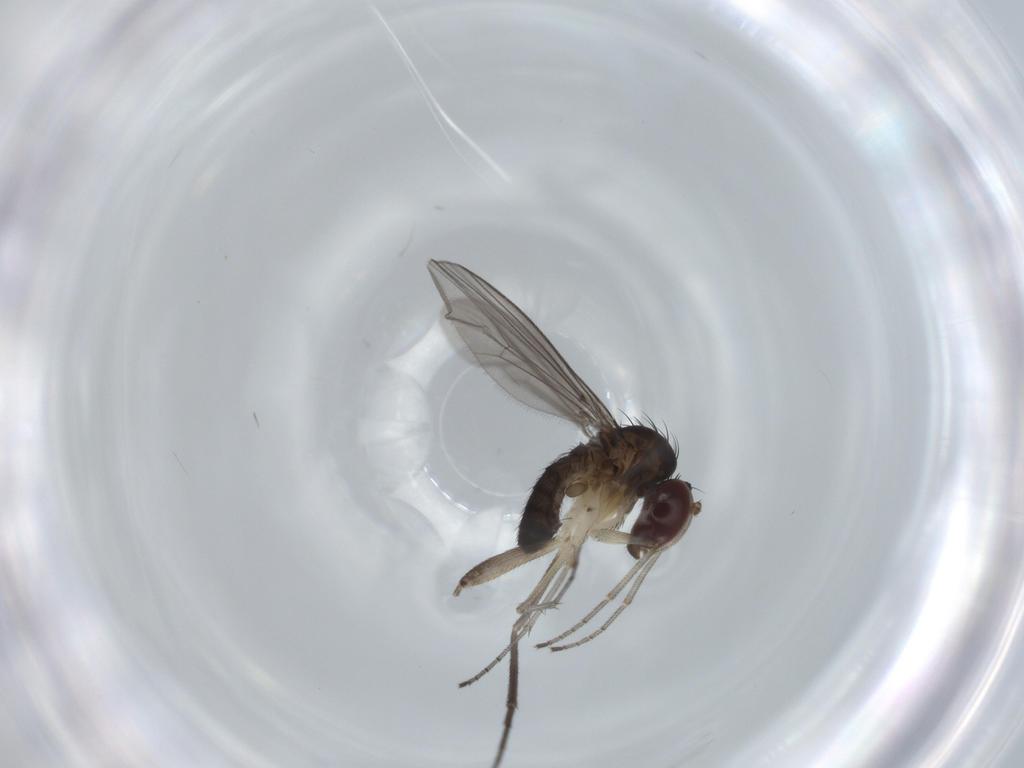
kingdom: Animalia
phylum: Arthropoda
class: Insecta
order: Diptera
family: Dolichopodidae
